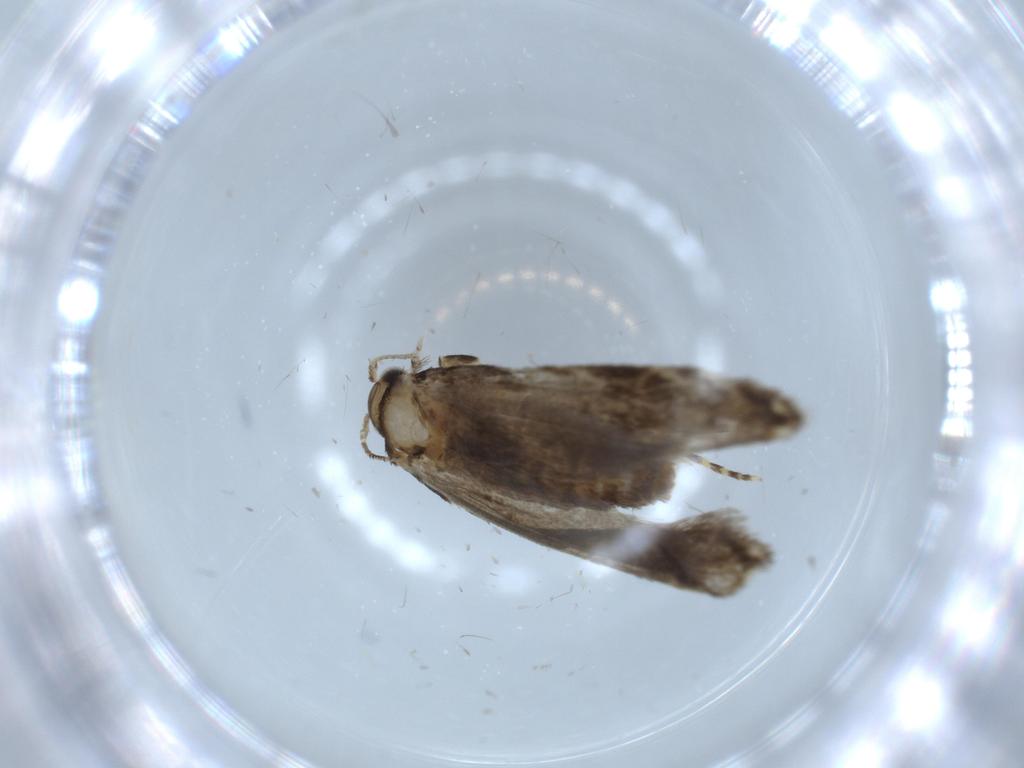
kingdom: Animalia
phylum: Arthropoda
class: Insecta
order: Lepidoptera
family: Tineidae
